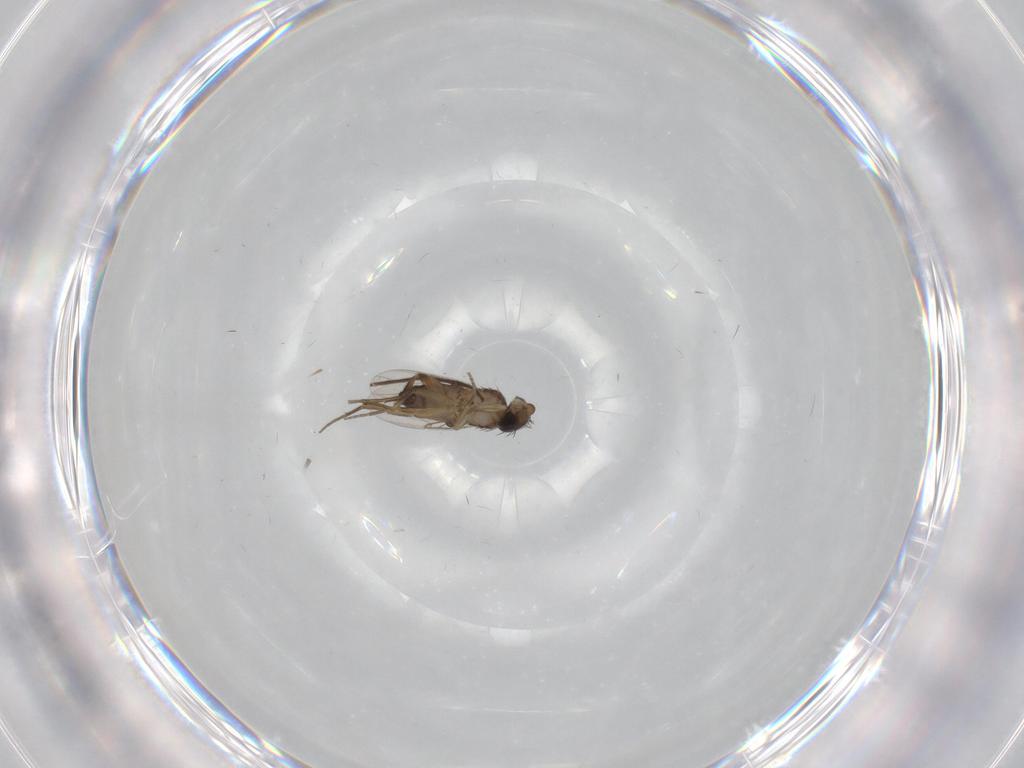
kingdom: Animalia
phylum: Arthropoda
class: Insecta
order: Diptera
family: Chironomidae
